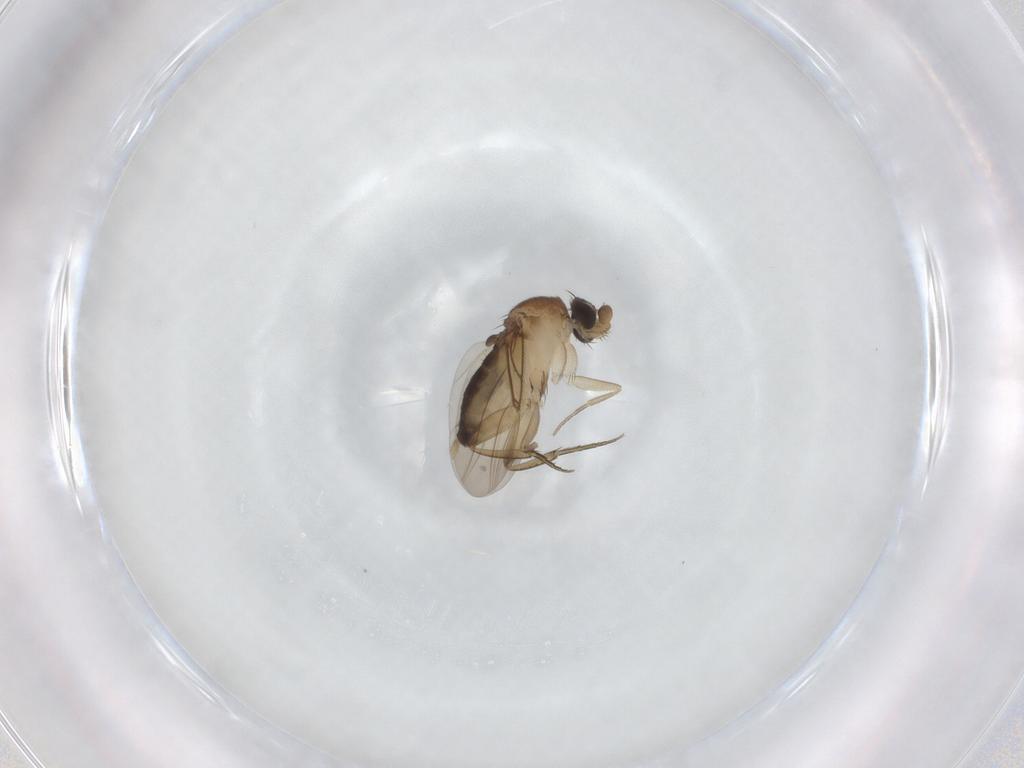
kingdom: Animalia
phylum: Arthropoda
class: Insecta
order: Diptera
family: Phoridae
